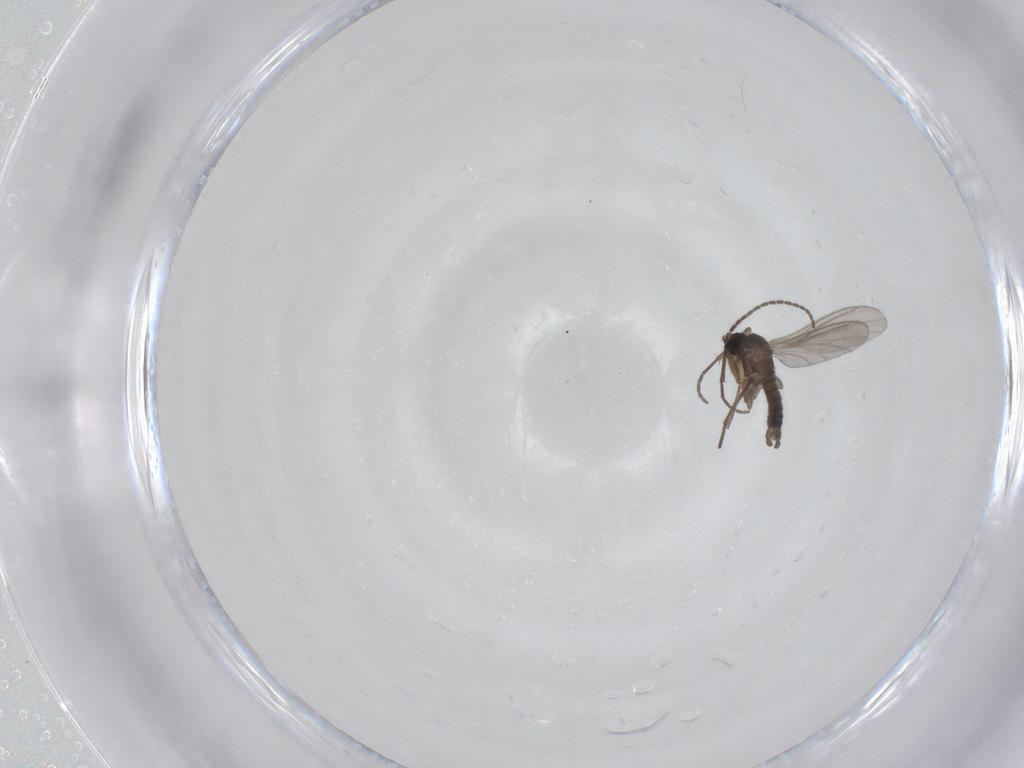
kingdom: Animalia
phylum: Arthropoda
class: Insecta
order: Diptera
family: Sciaridae
